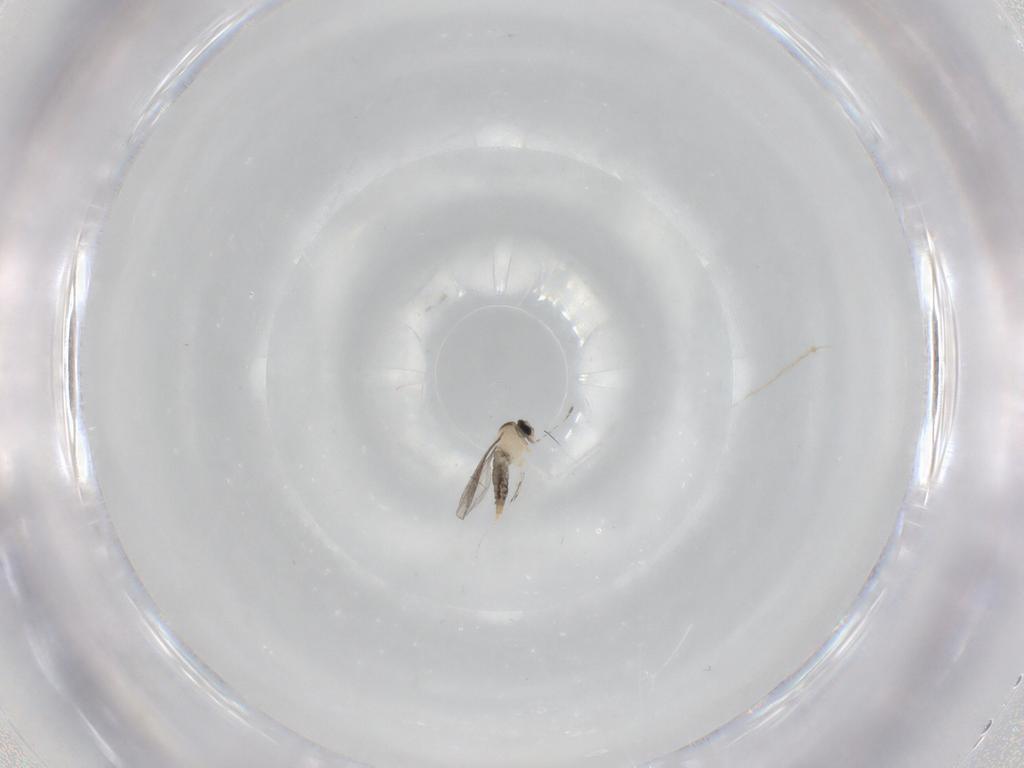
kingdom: Animalia
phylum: Arthropoda
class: Insecta
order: Diptera
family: Cecidomyiidae
